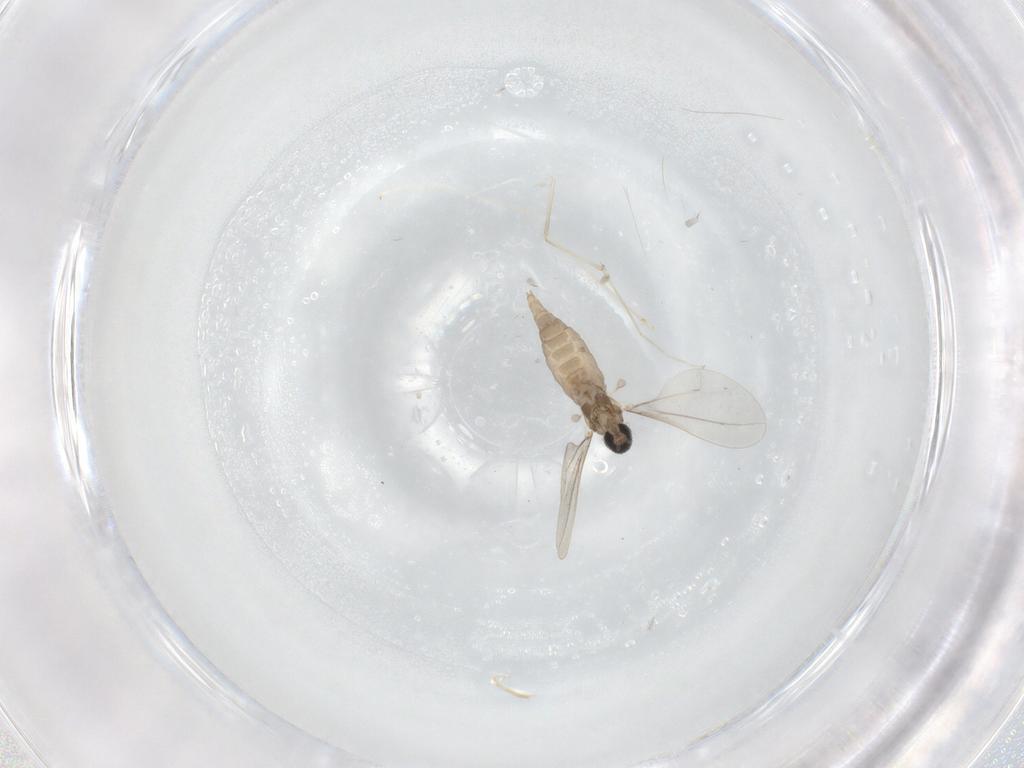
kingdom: Animalia
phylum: Arthropoda
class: Insecta
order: Diptera
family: Cecidomyiidae
